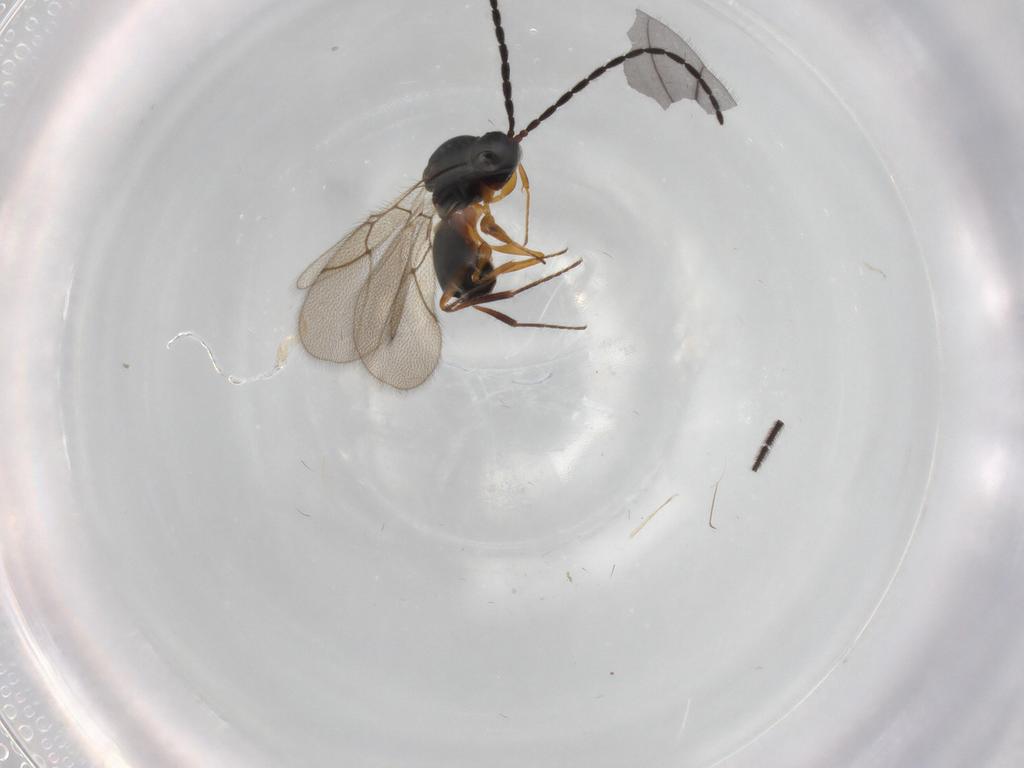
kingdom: Animalia
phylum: Arthropoda
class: Insecta
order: Hymenoptera
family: Figitidae
